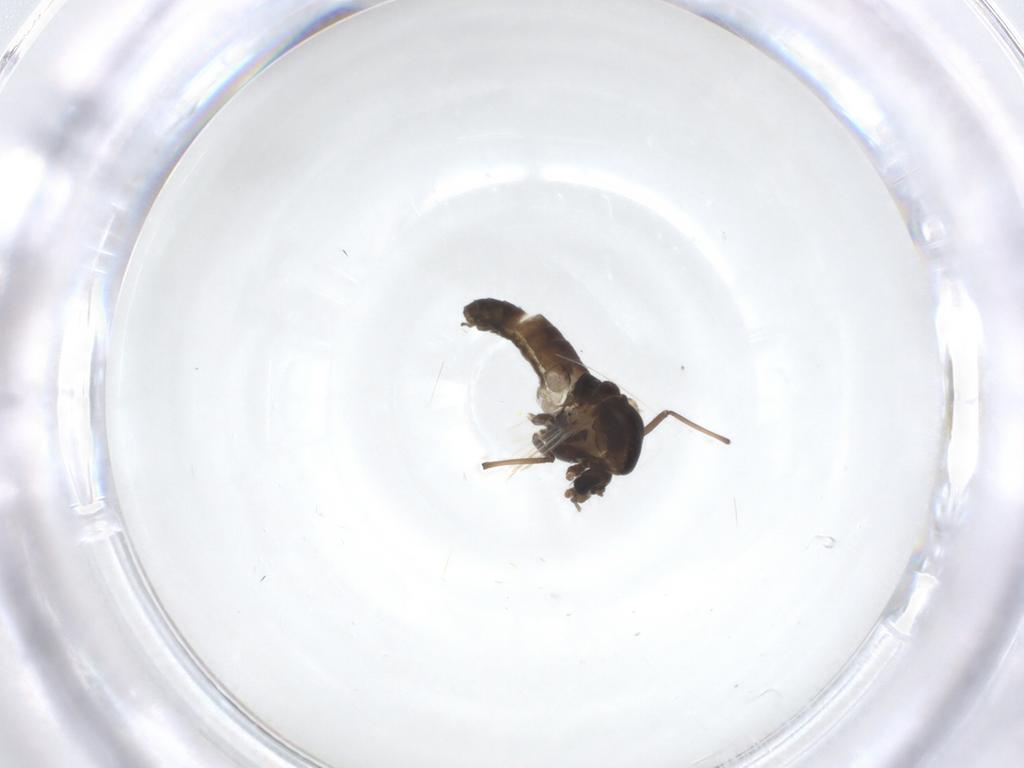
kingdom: Animalia
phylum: Arthropoda
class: Insecta
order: Diptera
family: Chironomidae
